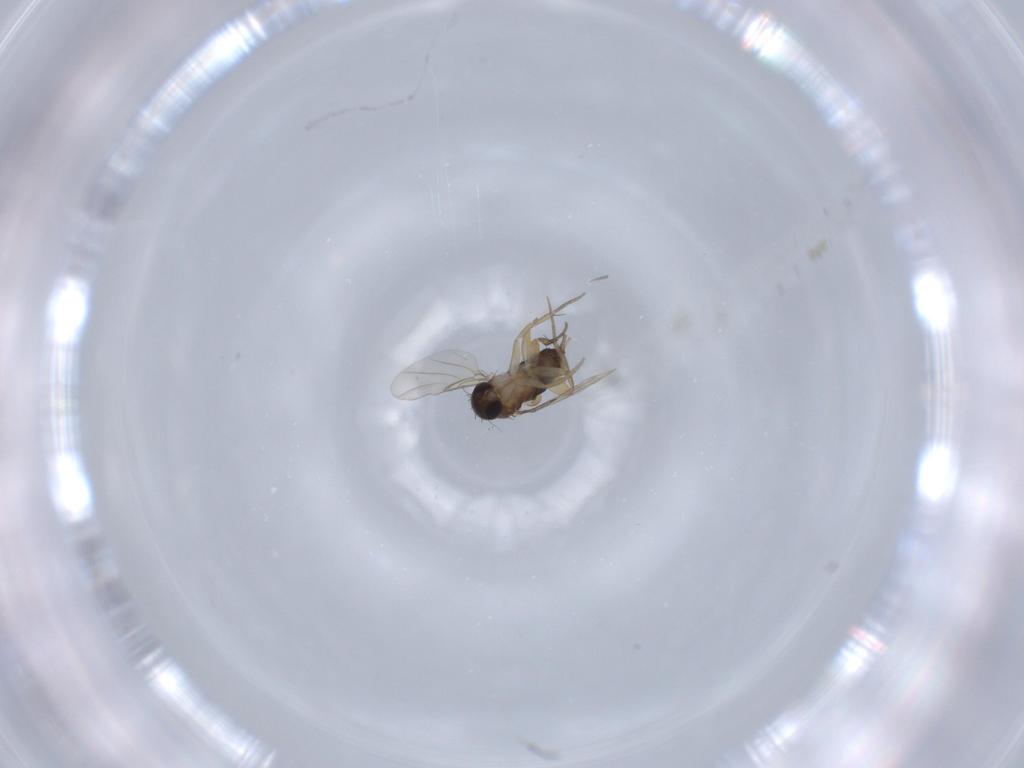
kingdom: Animalia
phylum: Arthropoda
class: Insecta
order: Diptera
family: Phoridae
